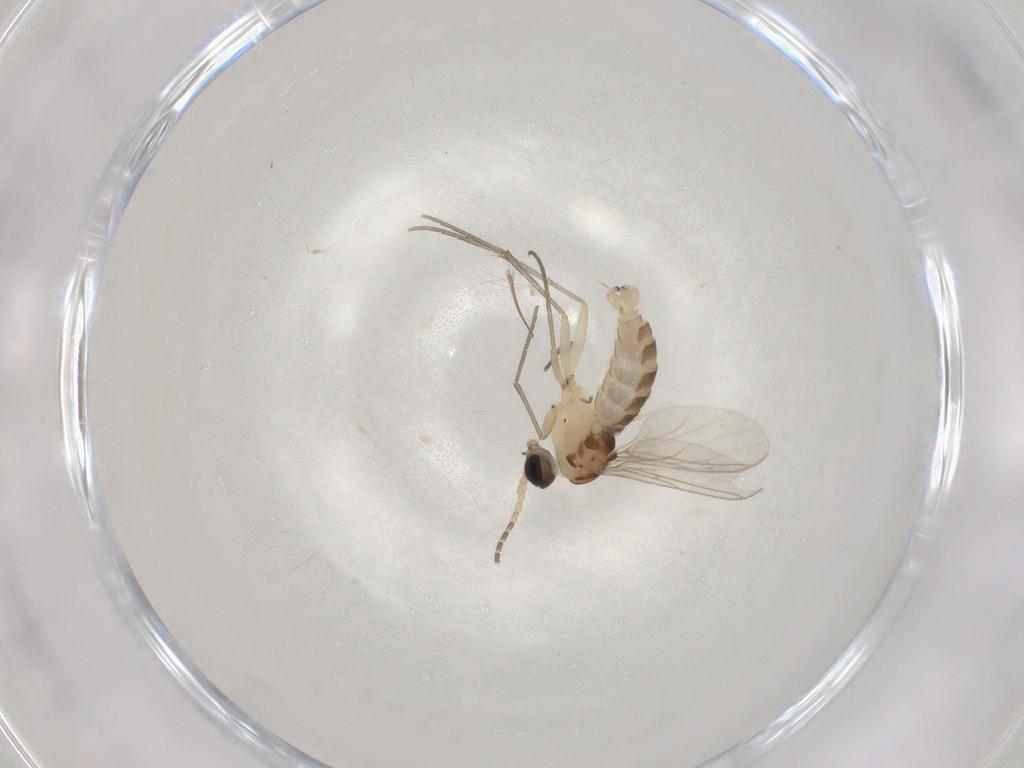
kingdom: Animalia
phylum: Arthropoda
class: Insecta
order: Diptera
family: Sciaridae
